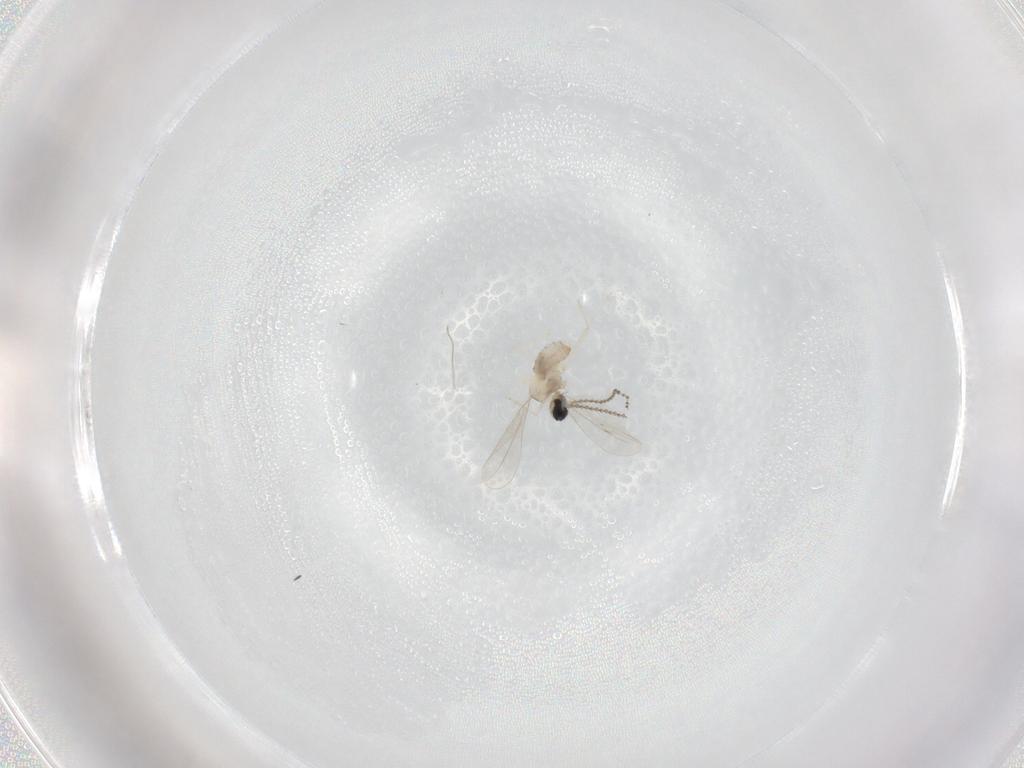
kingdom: Animalia
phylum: Arthropoda
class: Insecta
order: Diptera
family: Cecidomyiidae
